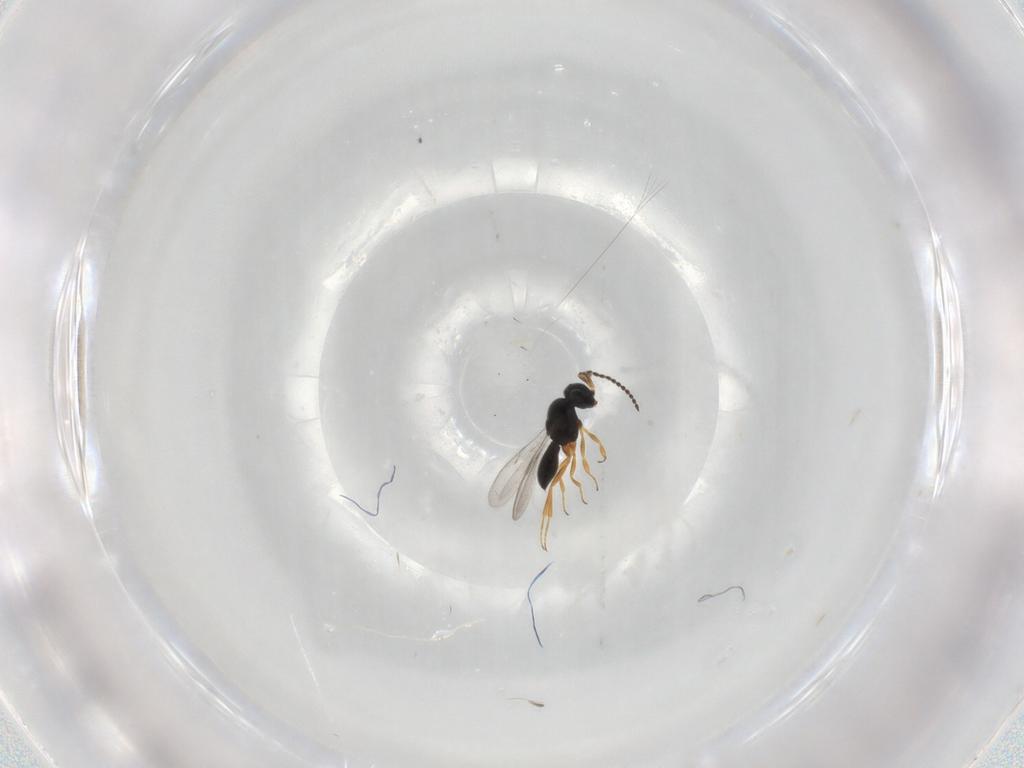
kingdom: Animalia
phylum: Arthropoda
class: Insecta
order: Hymenoptera
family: Scelionidae
